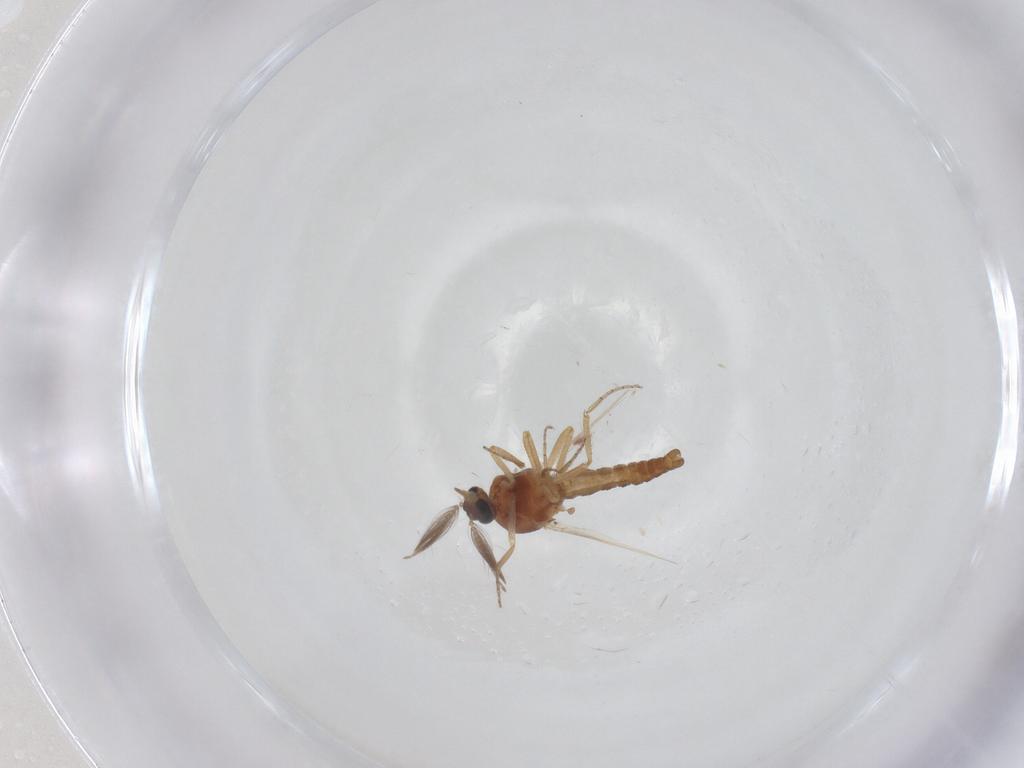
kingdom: Animalia
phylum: Arthropoda
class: Insecta
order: Diptera
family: Ceratopogonidae
